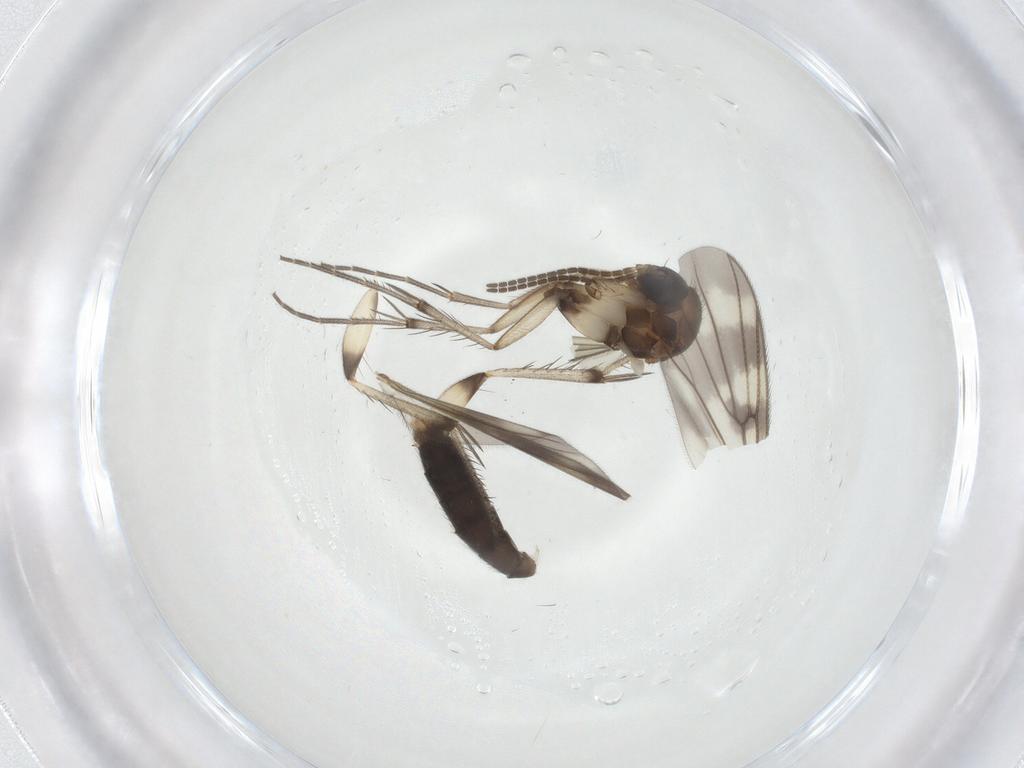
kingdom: Animalia
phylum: Arthropoda
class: Insecta
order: Diptera
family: Mycetophilidae
